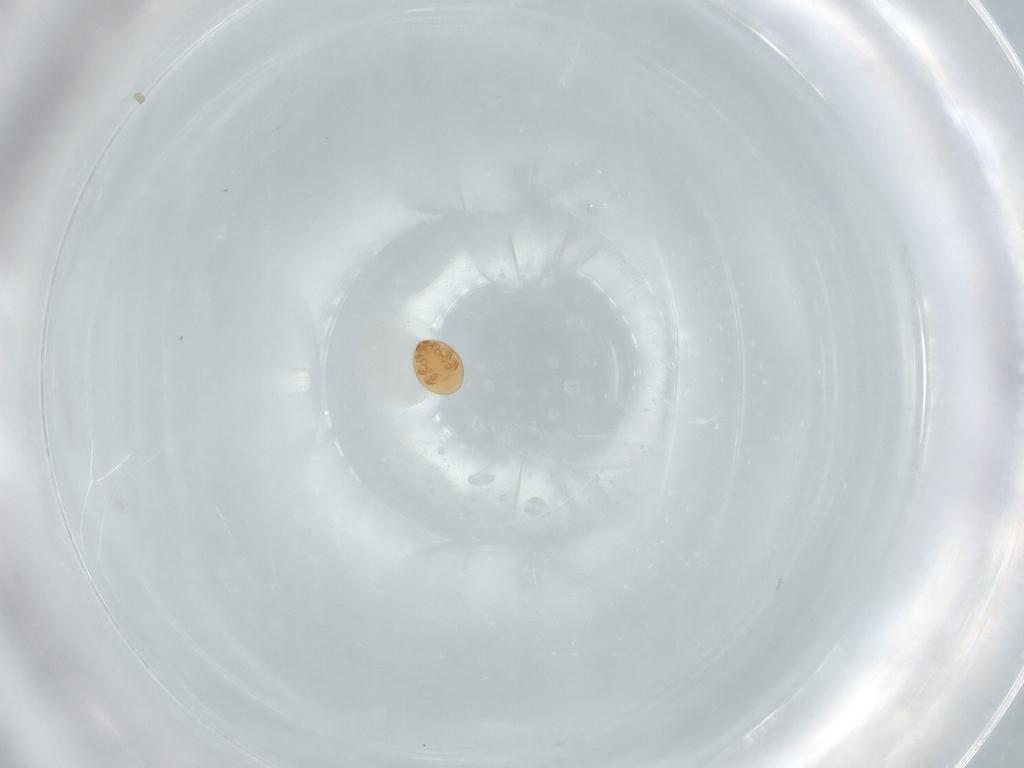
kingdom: Animalia
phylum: Arthropoda
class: Arachnida
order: Mesostigmata
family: Trematuridae
